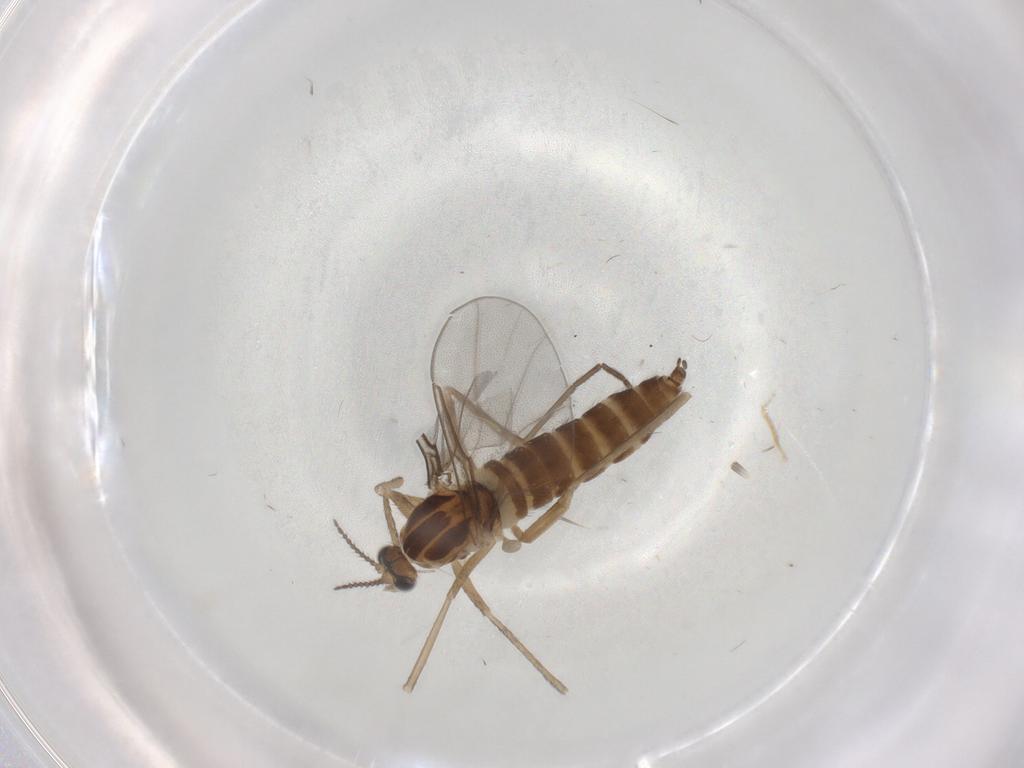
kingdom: Animalia
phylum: Arthropoda
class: Insecta
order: Diptera
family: Cecidomyiidae
